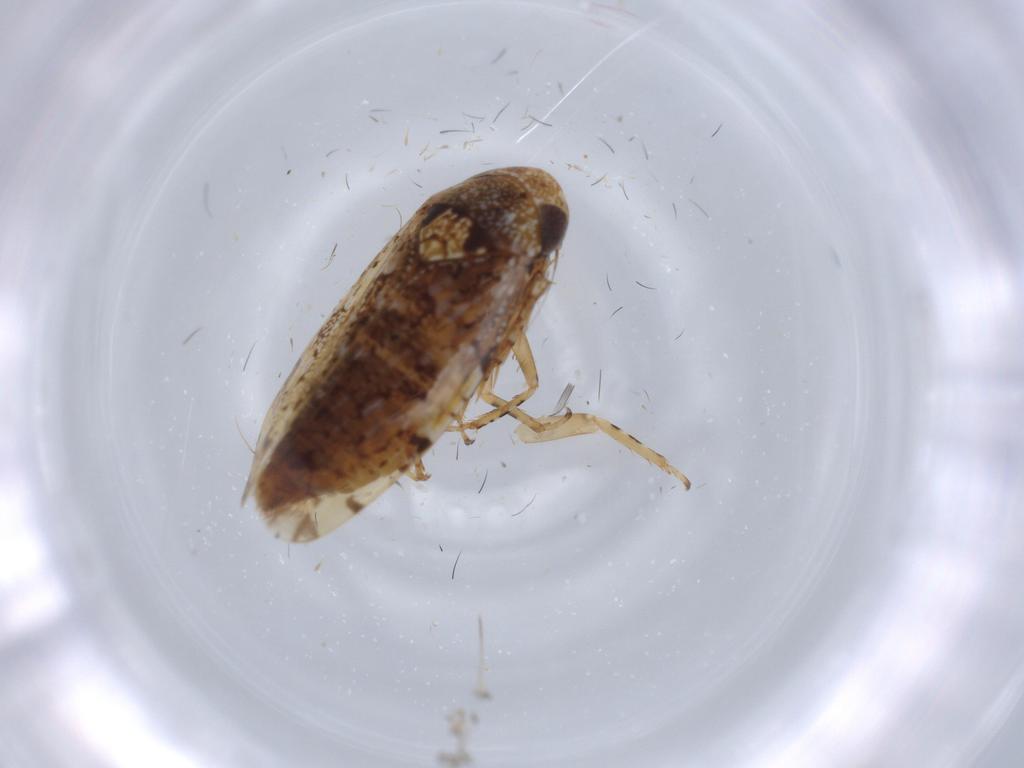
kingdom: Animalia
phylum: Arthropoda
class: Insecta
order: Hemiptera
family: Cicadellidae
